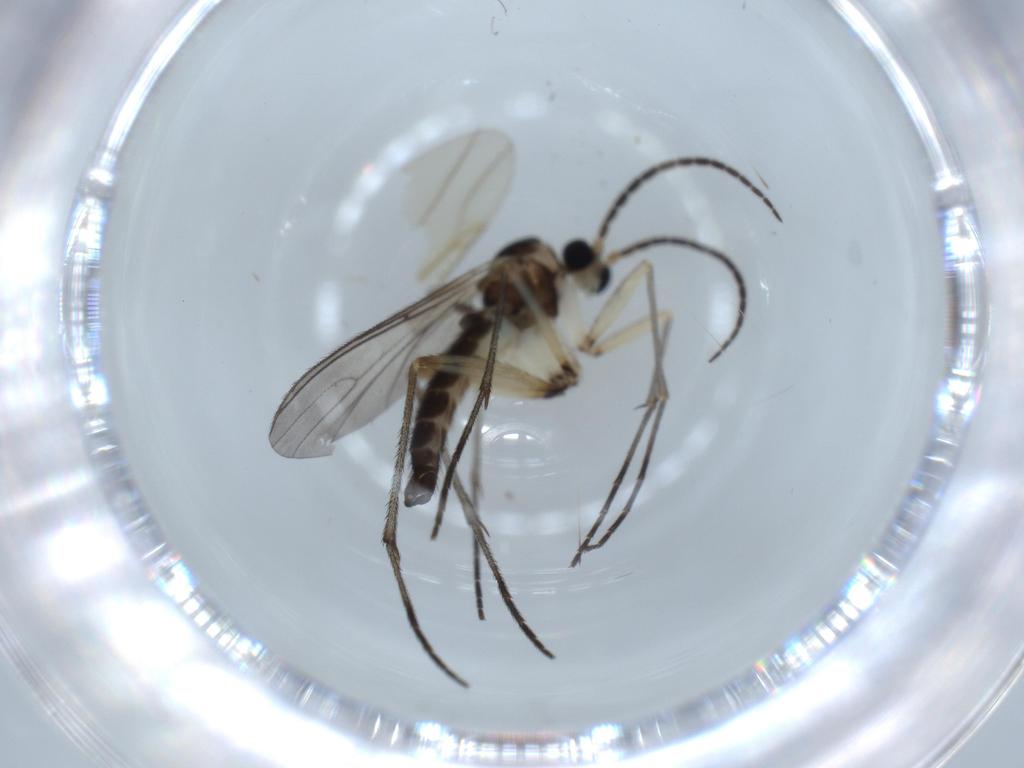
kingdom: Animalia
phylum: Arthropoda
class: Insecta
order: Diptera
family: Sciaridae
